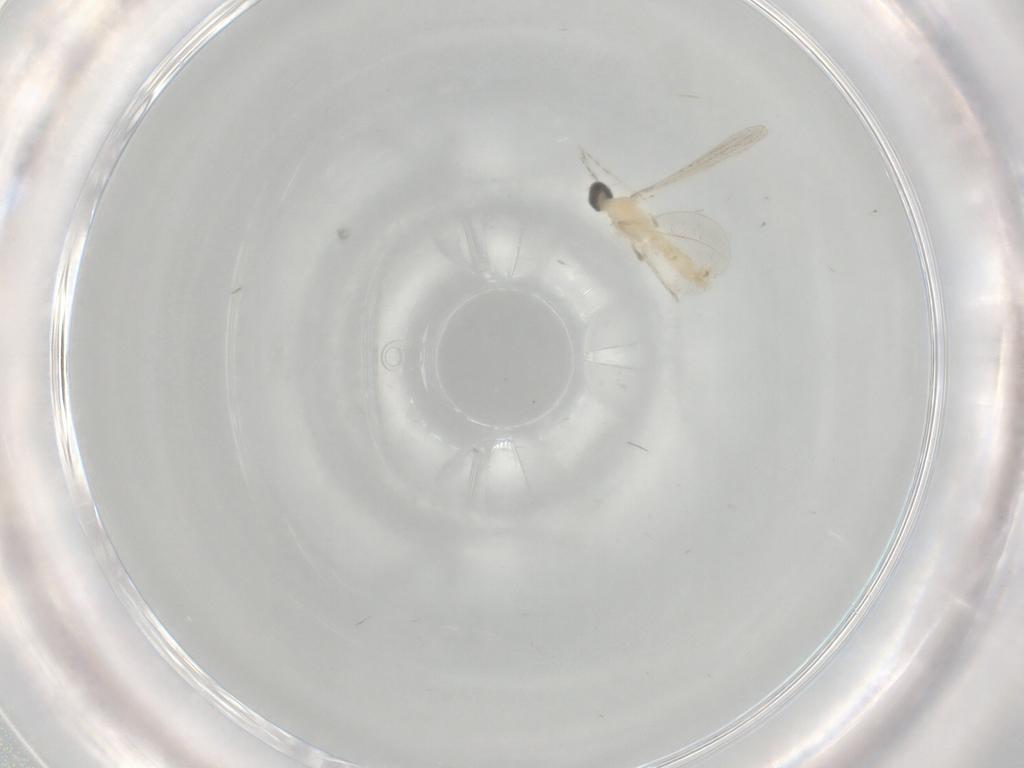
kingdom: Animalia
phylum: Arthropoda
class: Insecta
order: Diptera
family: Cecidomyiidae
